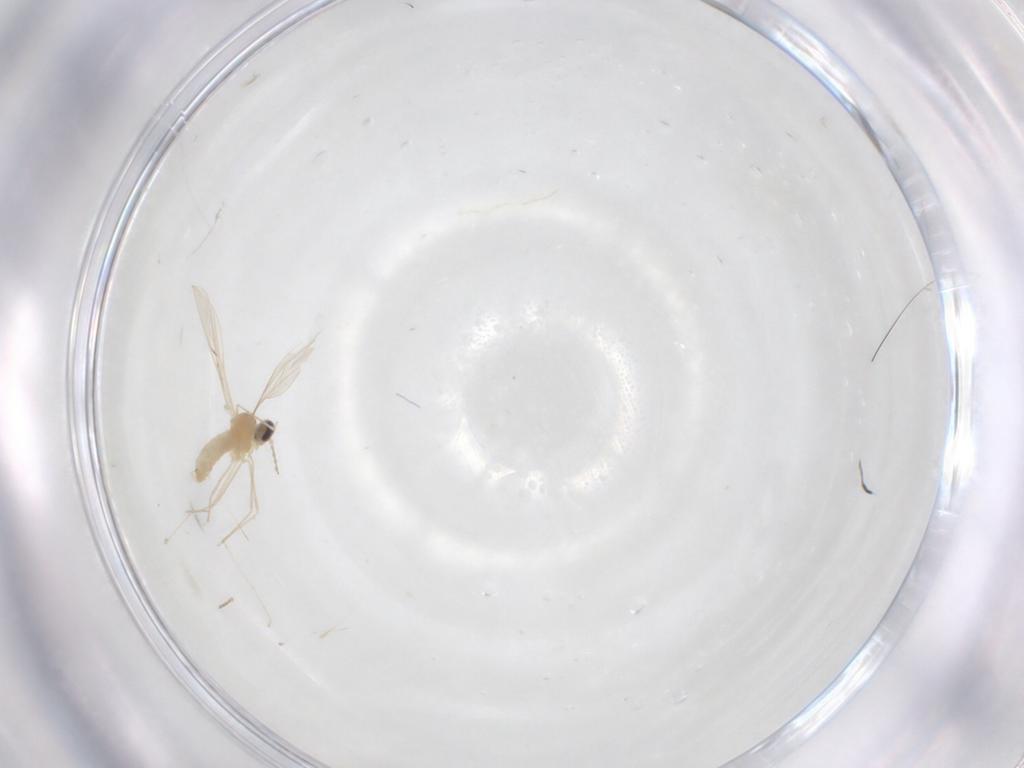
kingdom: Animalia
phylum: Arthropoda
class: Insecta
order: Diptera
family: Cecidomyiidae
